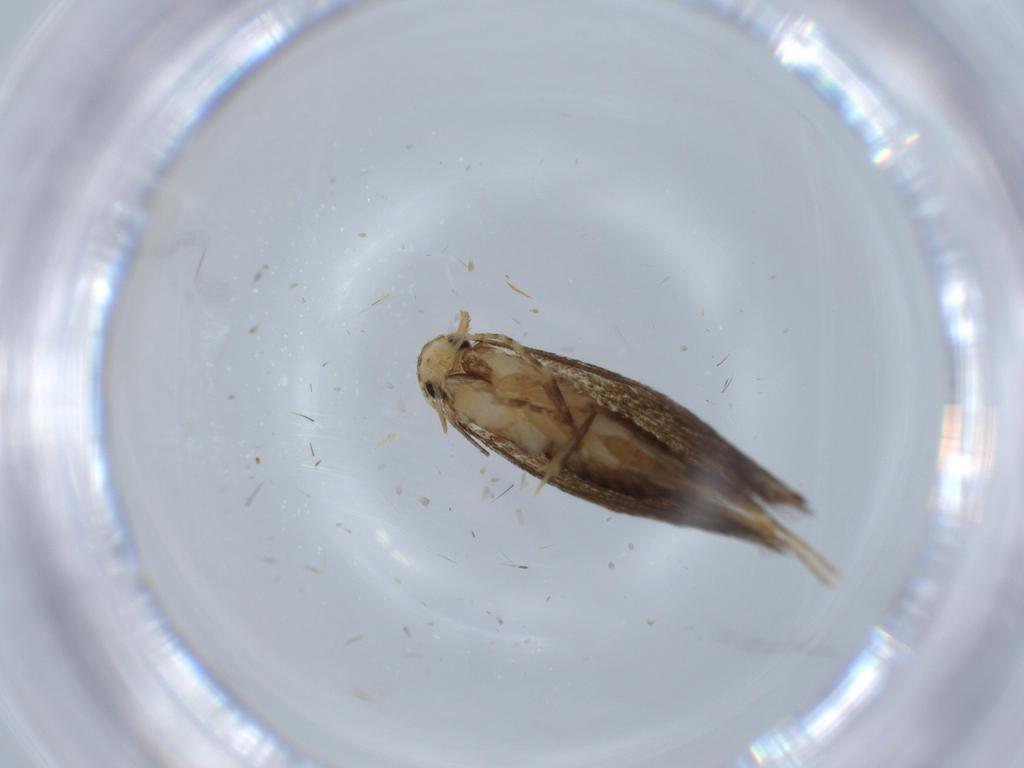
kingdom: Animalia
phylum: Arthropoda
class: Insecta
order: Lepidoptera
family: Tineidae
